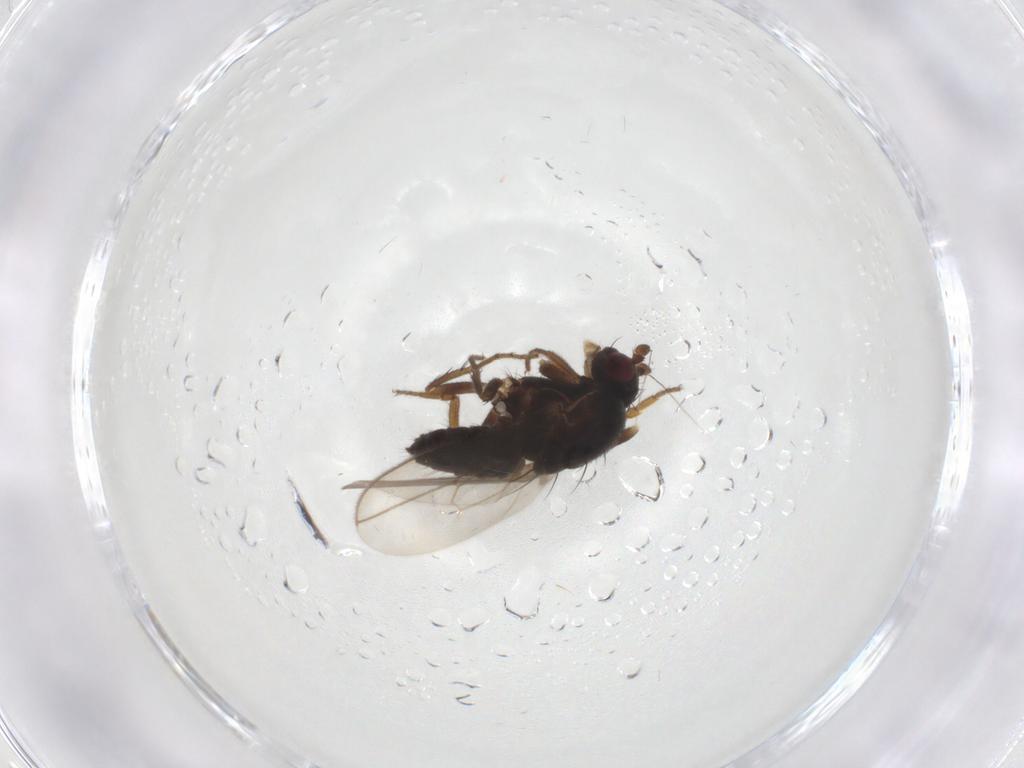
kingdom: Animalia
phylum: Arthropoda
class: Insecta
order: Diptera
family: Sphaeroceridae
